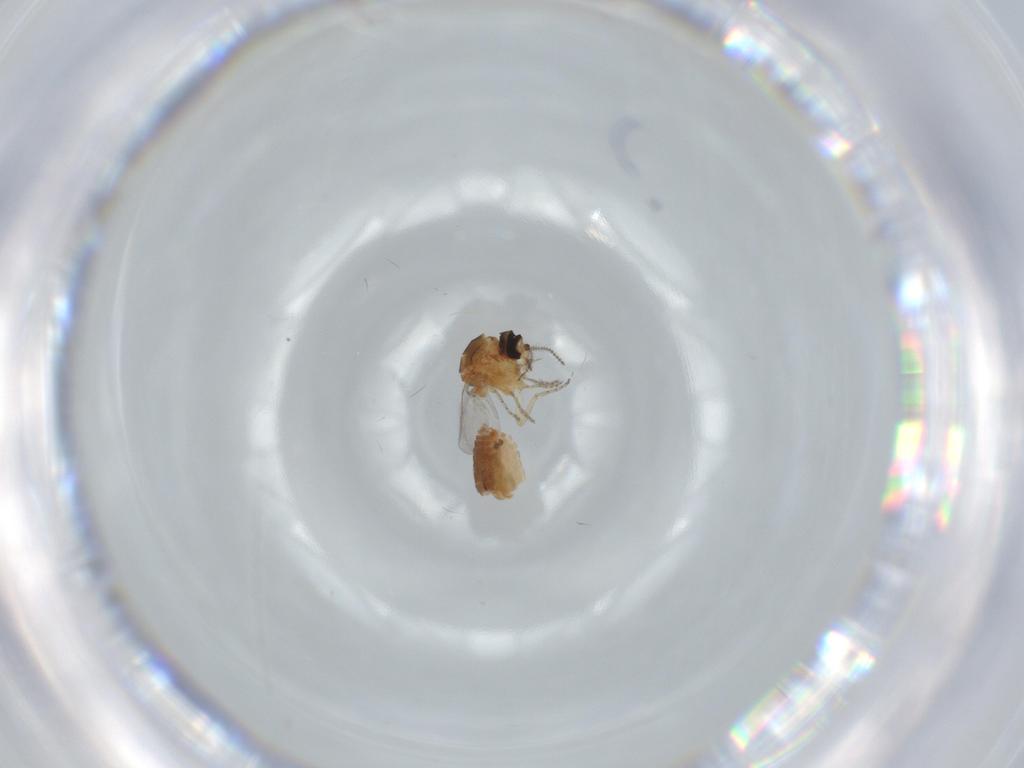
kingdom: Animalia
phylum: Arthropoda
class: Insecta
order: Diptera
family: Ceratopogonidae
